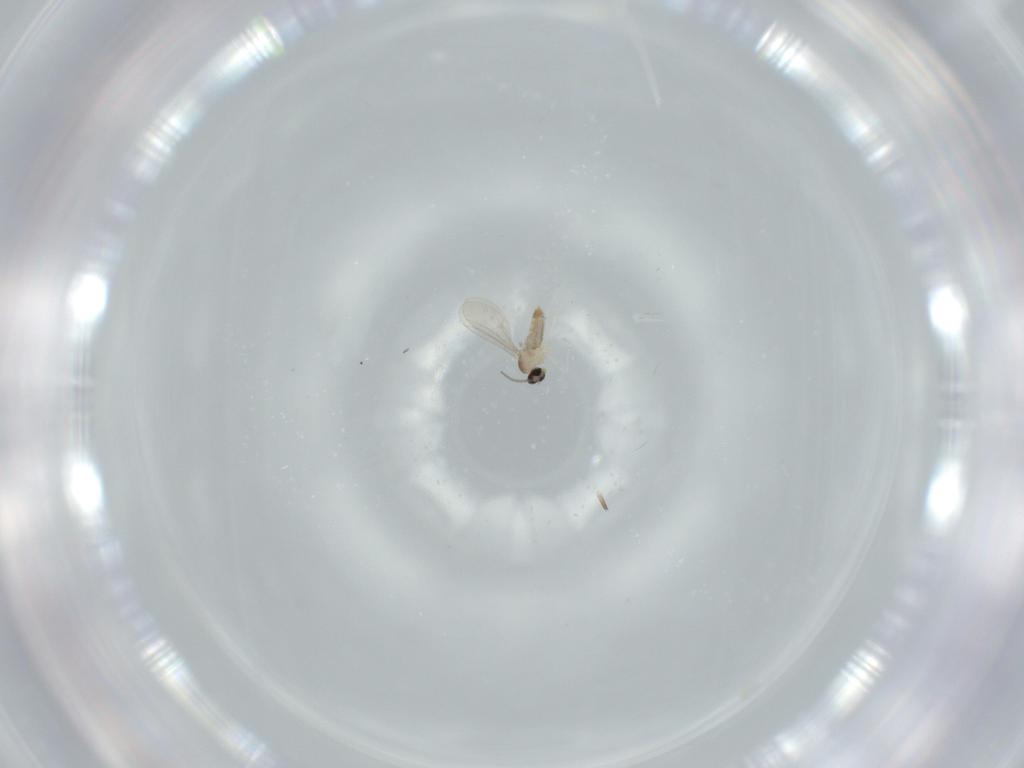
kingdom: Animalia
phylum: Arthropoda
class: Insecta
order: Diptera
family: Cecidomyiidae
